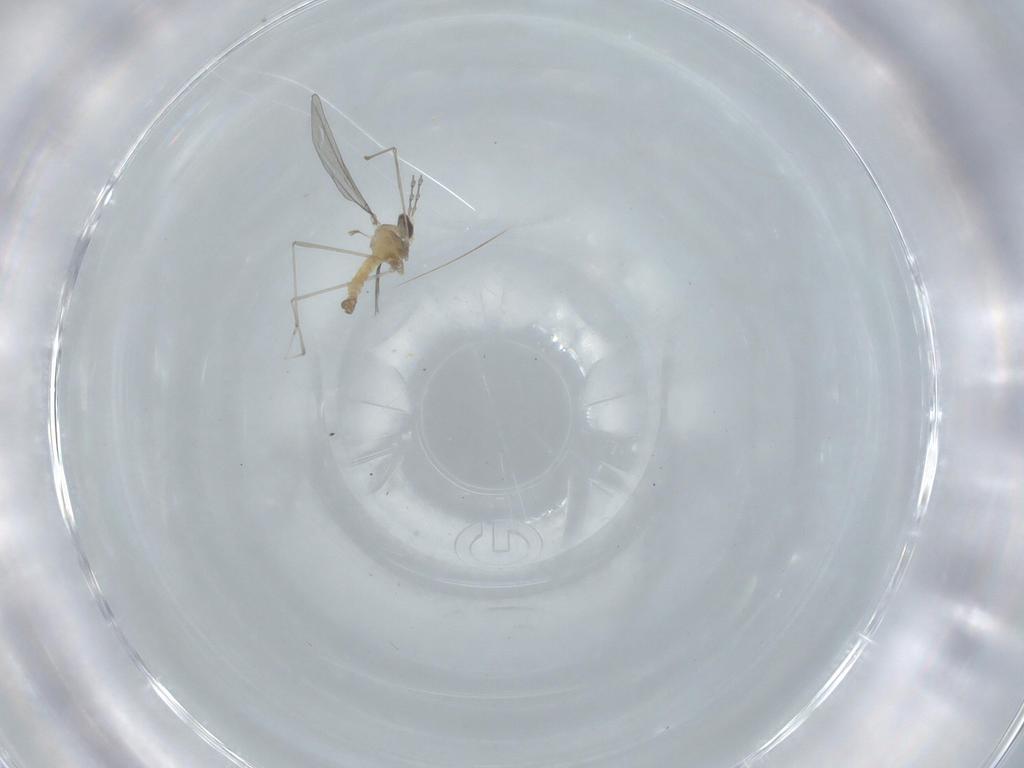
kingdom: Animalia
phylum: Arthropoda
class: Insecta
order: Diptera
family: Cecidomyiidae
